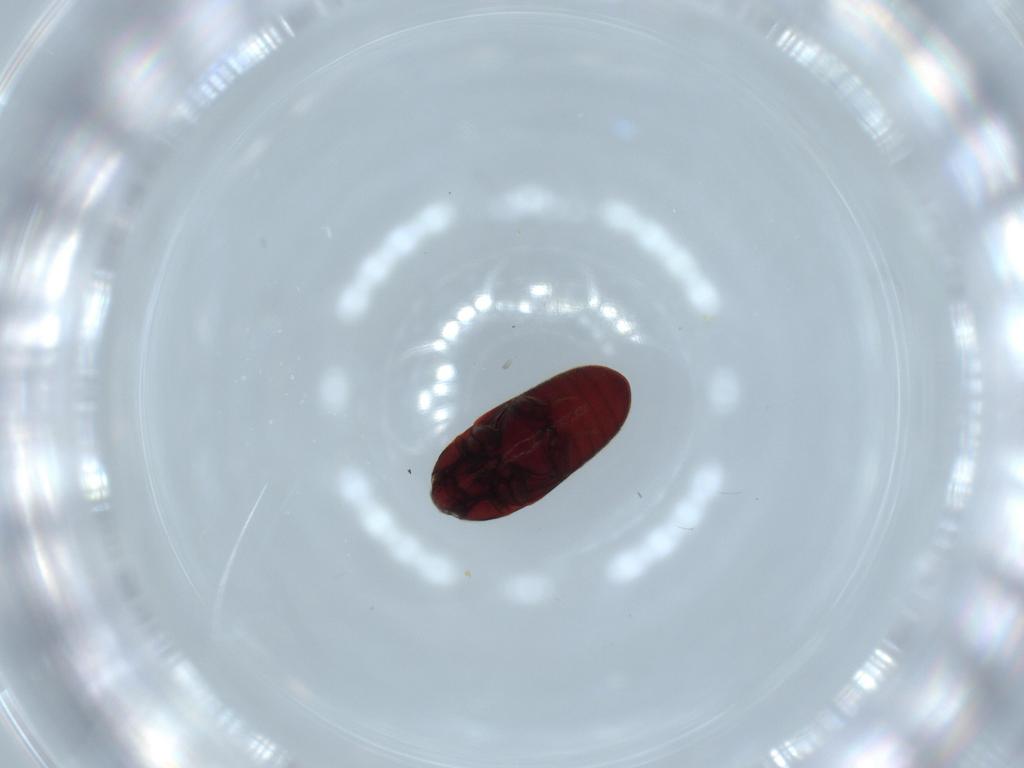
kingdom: Animalia
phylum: Arthropoda
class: Insecta
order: Coleoptera
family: Throscidae
